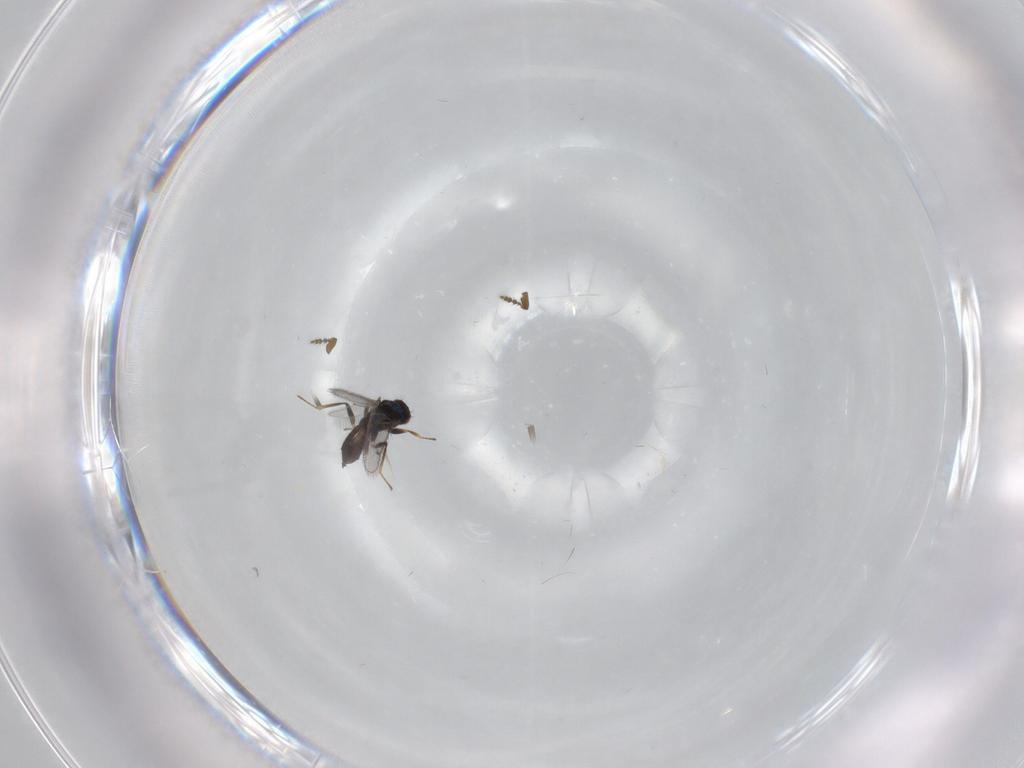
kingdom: Animalia
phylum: Arthropoda
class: Insecta
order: Hymenoptera
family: Eulophidae
